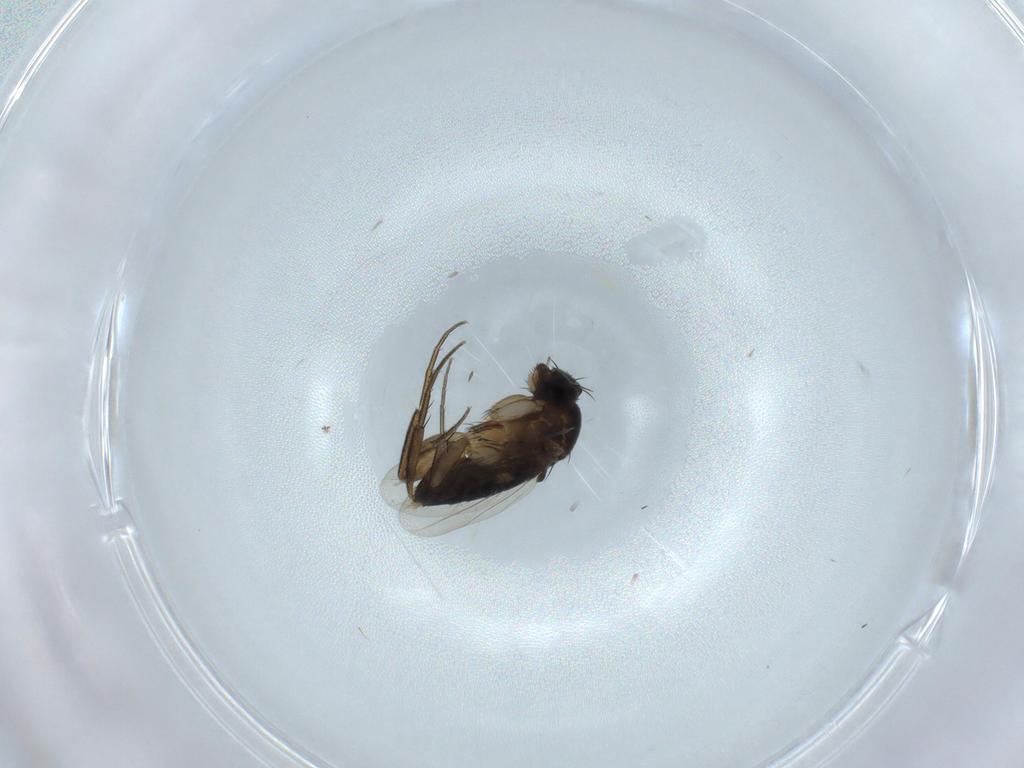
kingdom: Animalia
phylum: Arthropoda
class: Insecta
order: Diptera
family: Phoridae
